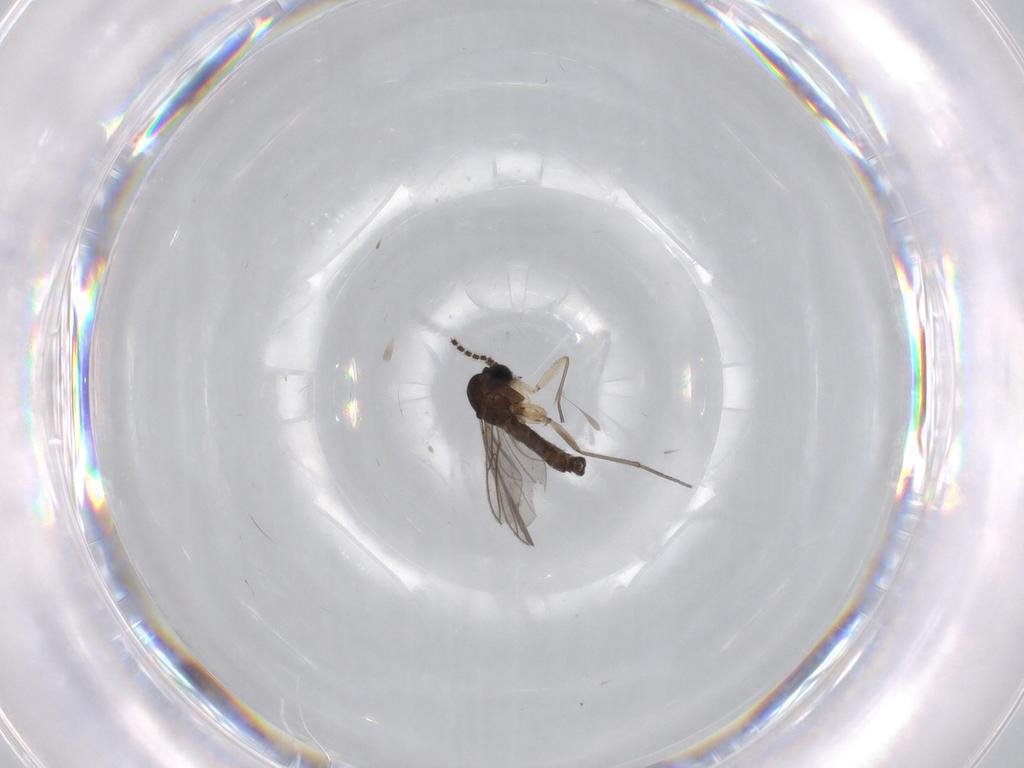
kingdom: Animalia
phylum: Arthropoda
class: Insecta
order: Diptera
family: Sciaridae
